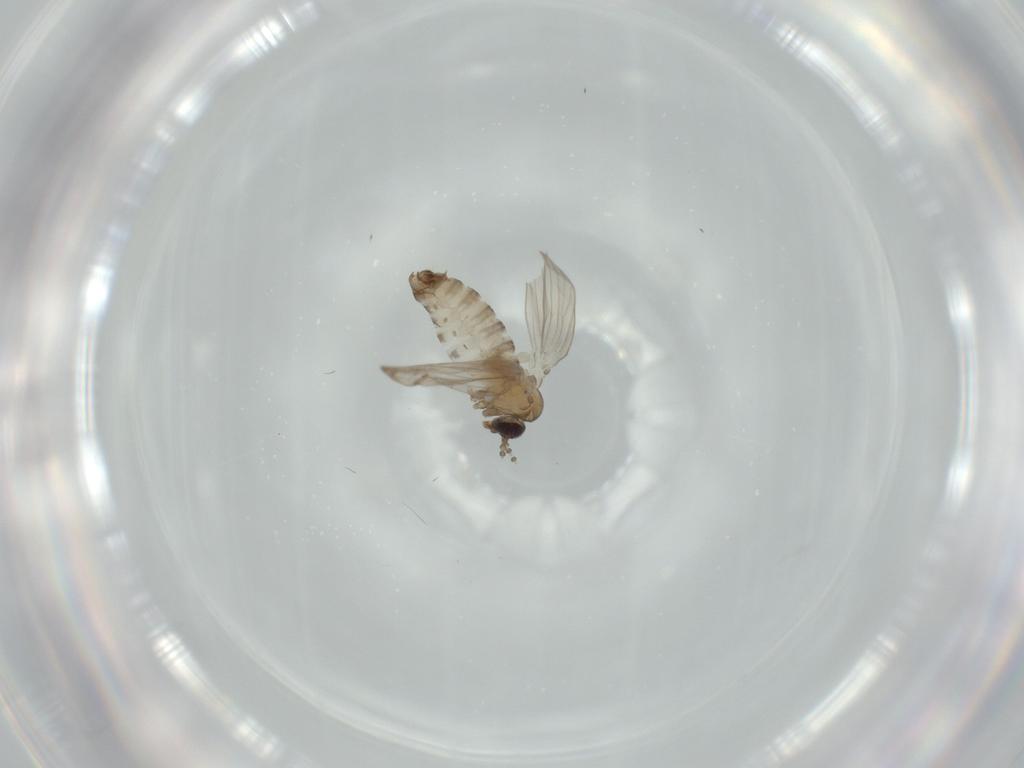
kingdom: Animalia
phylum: Arthropoda
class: Insecta
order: Diptera
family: Psychodidae
